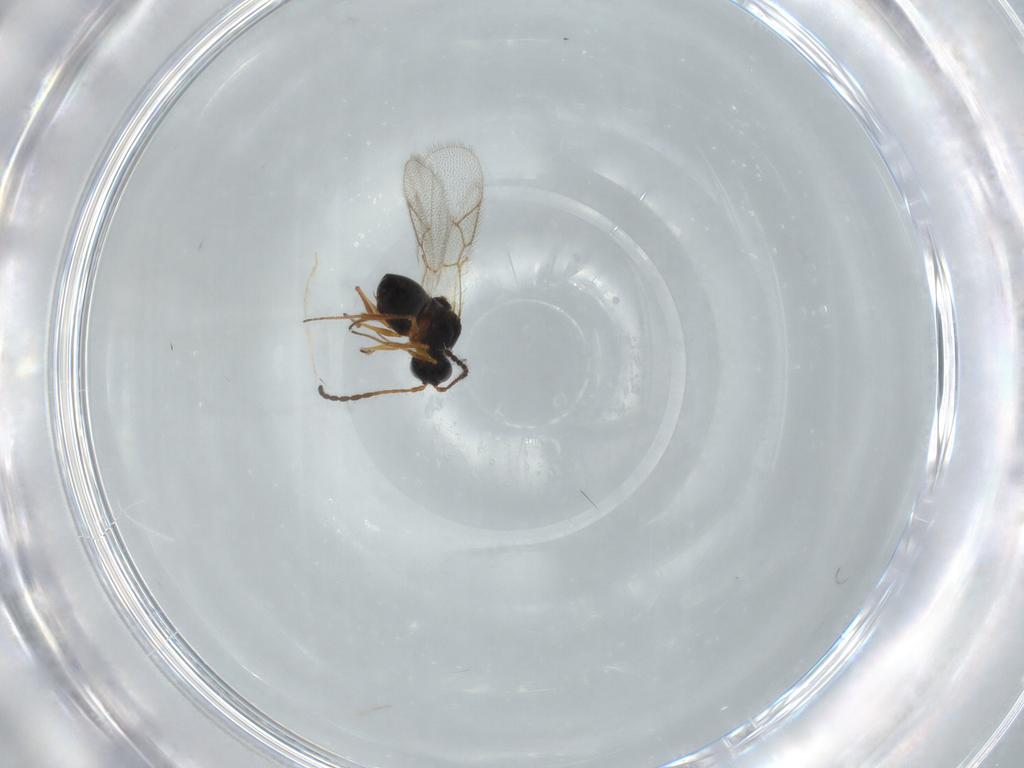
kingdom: Animalia
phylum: Arthropoda
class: Insecta
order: Hymenoptera
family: Figitidae
